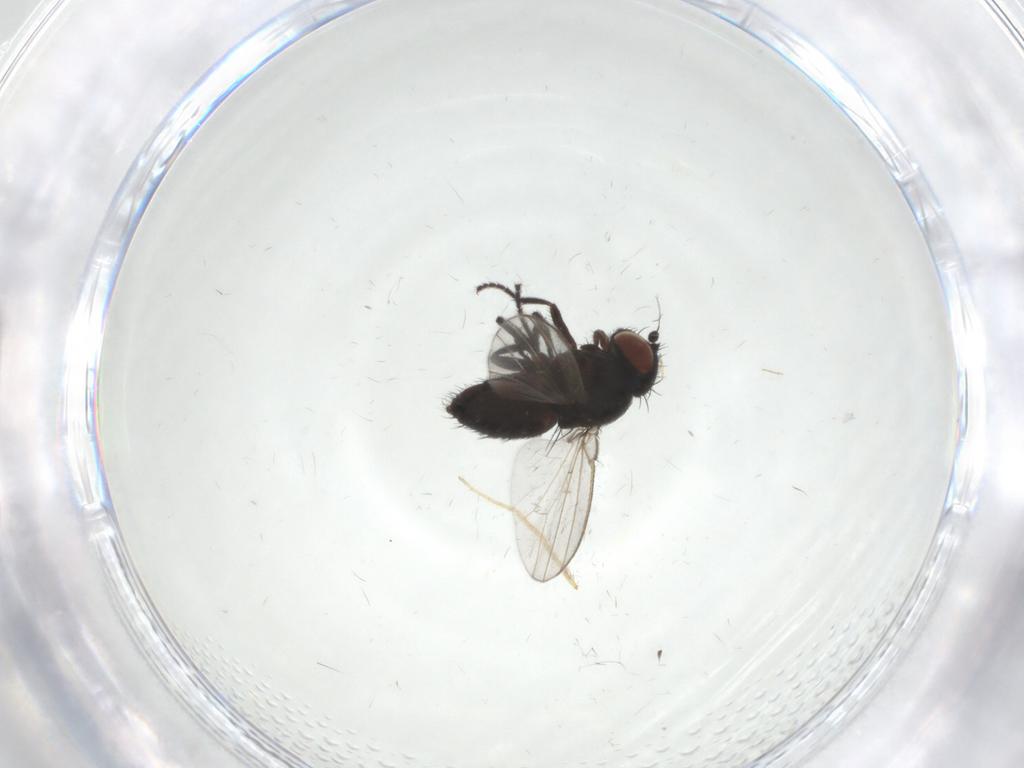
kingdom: Animalia
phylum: Arthropoda
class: Insecta
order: Diptera
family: Milichiidae
